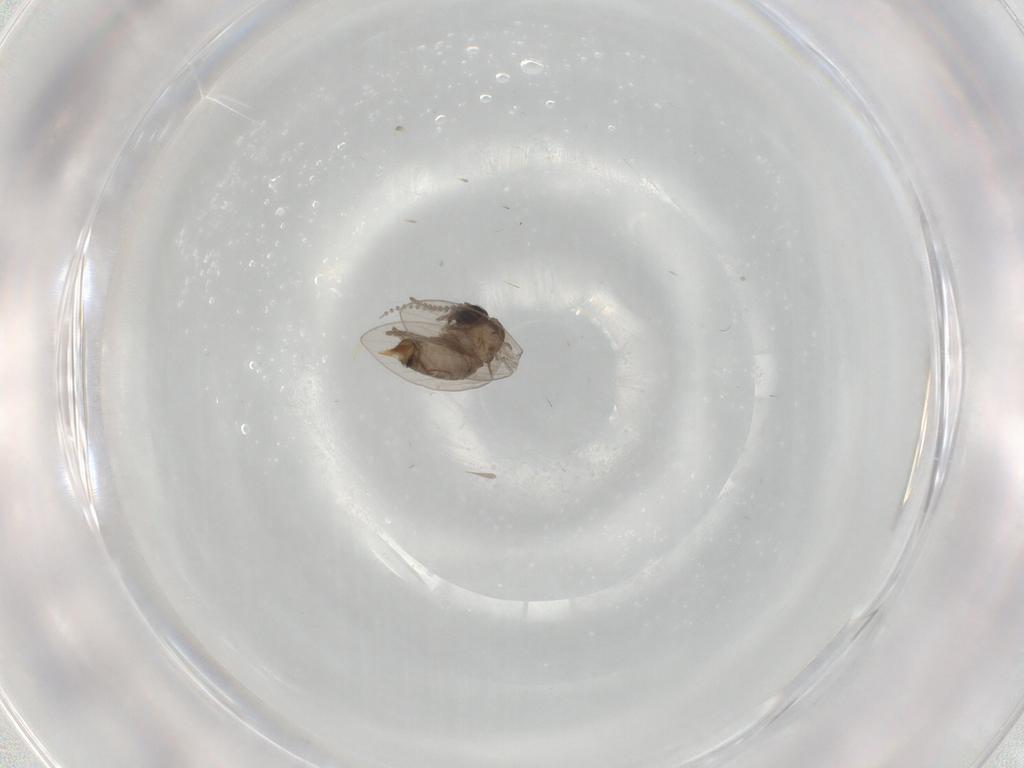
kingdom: Animalia
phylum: Arthropoda
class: Insecta
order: Diptera
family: Psychodidae
